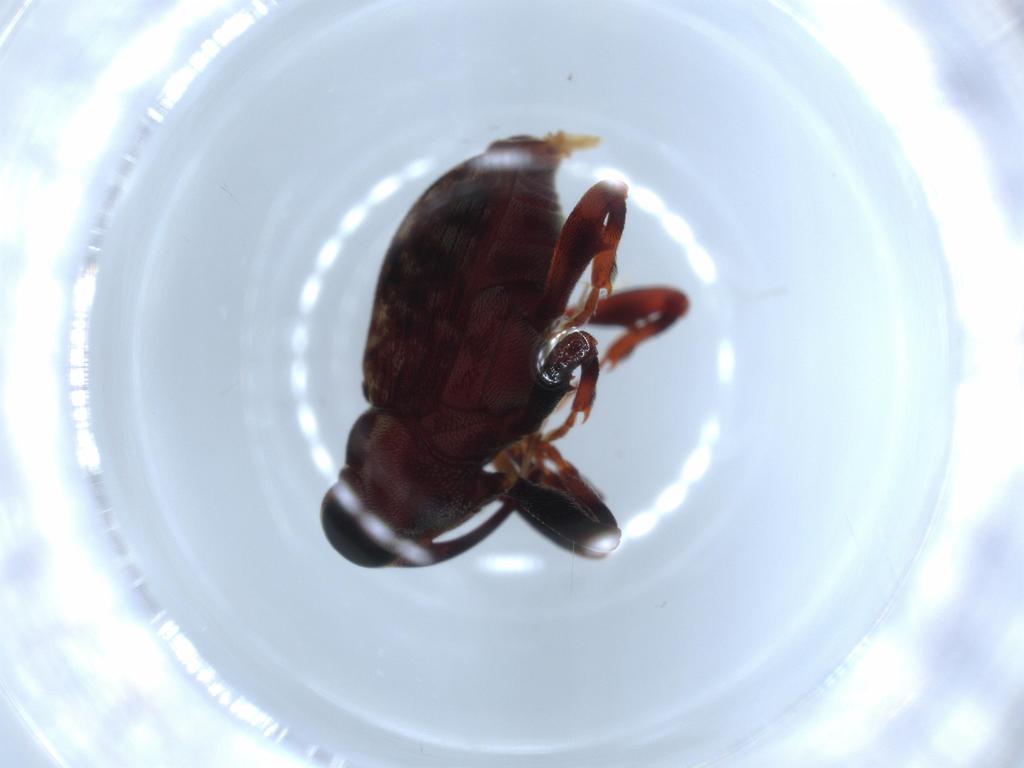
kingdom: Animalia
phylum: Arthropoda
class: Insecta
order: Coleoptera
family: Curculionidae
